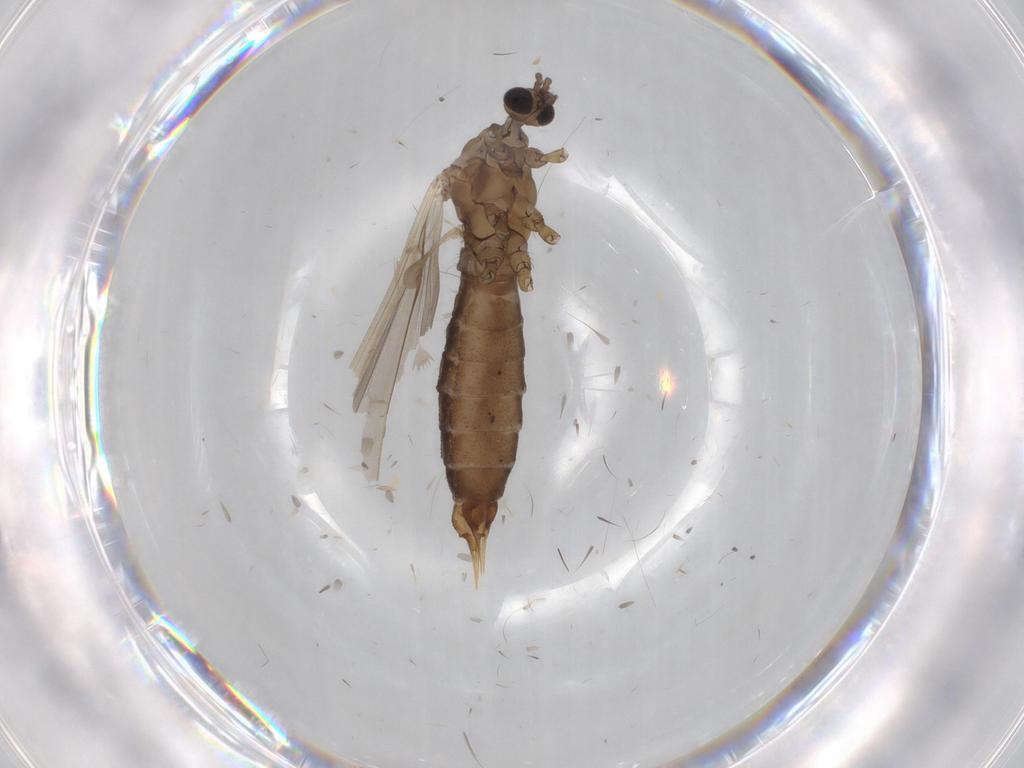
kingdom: Animalia
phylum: Arthropoda
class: Insecta
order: Diptera
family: Limoniidae
